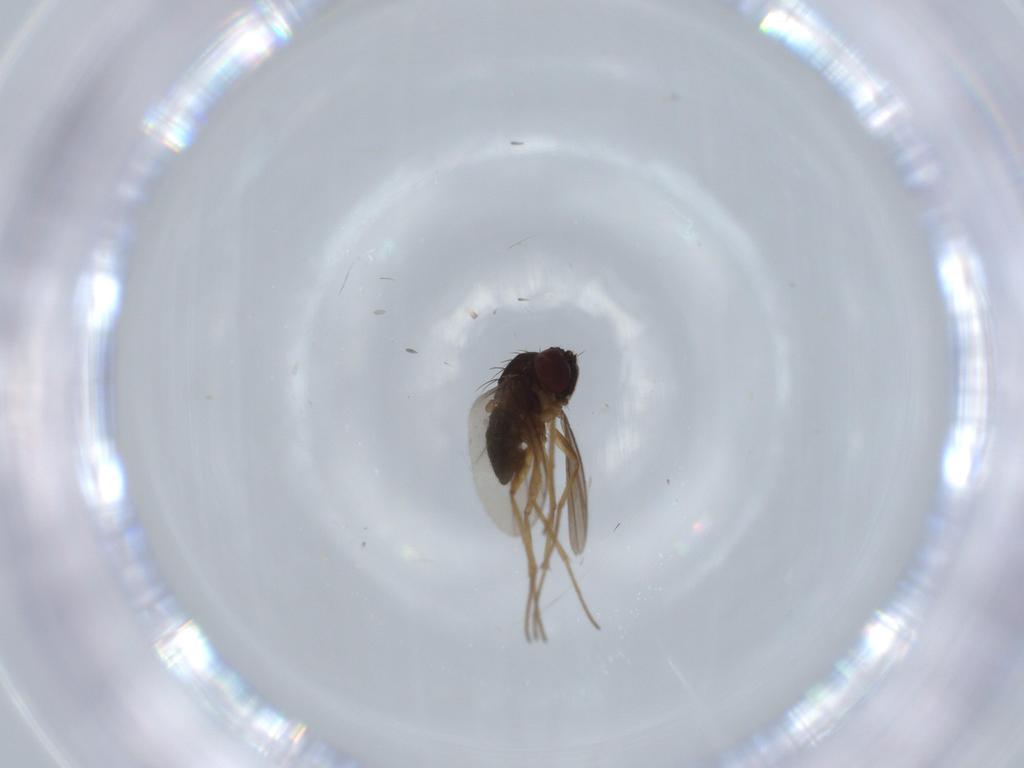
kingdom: Animalia
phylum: Arthropoda
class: Insecta
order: Diptera
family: Dolichopodidae
